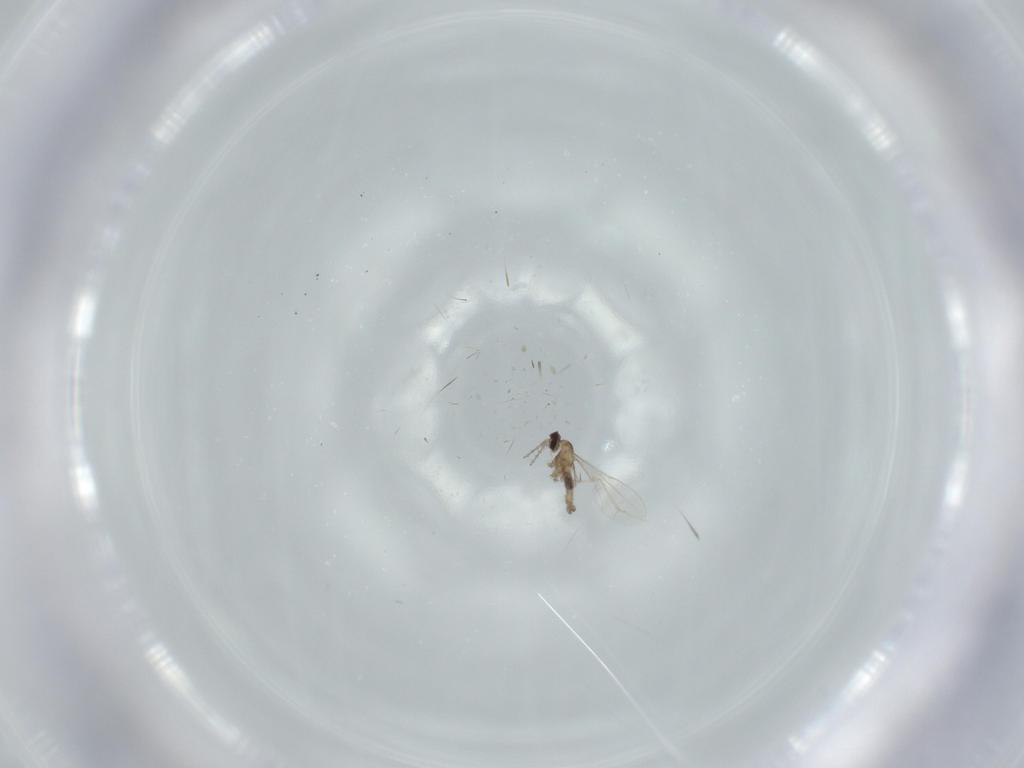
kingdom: Animalia
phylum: Arthropoda
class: Insecta
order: Diptera
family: Cecidomyiidae
